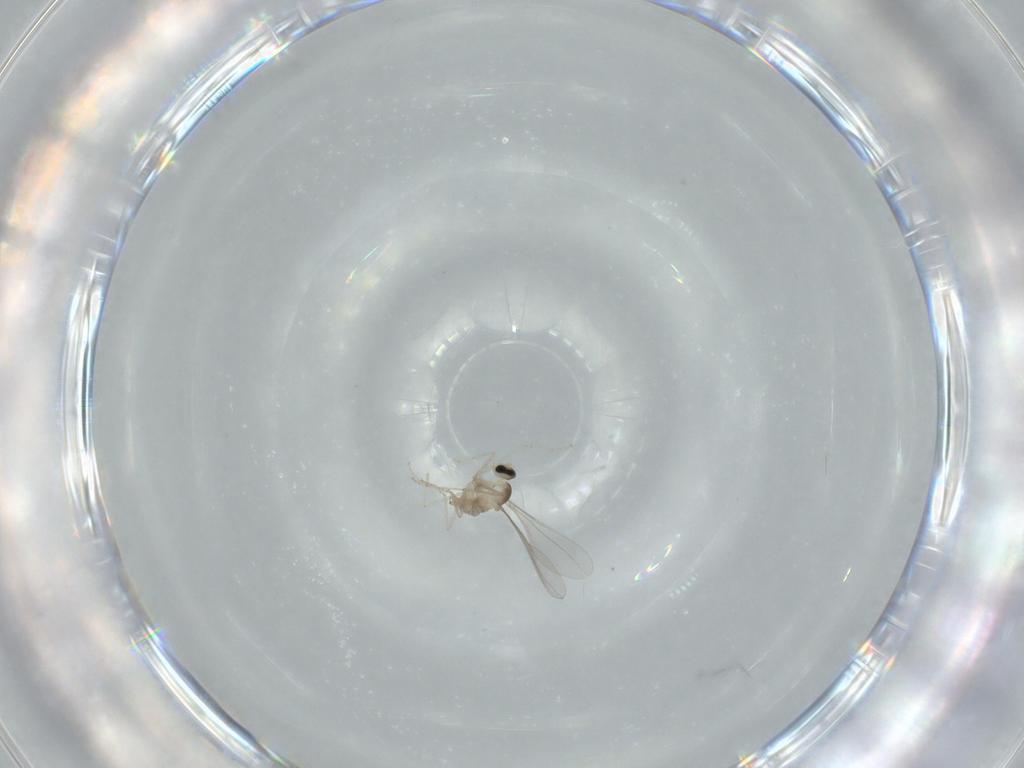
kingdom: Animalia
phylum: Arthropoda
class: Insecta
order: Diptera
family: Cecidomyiidae
